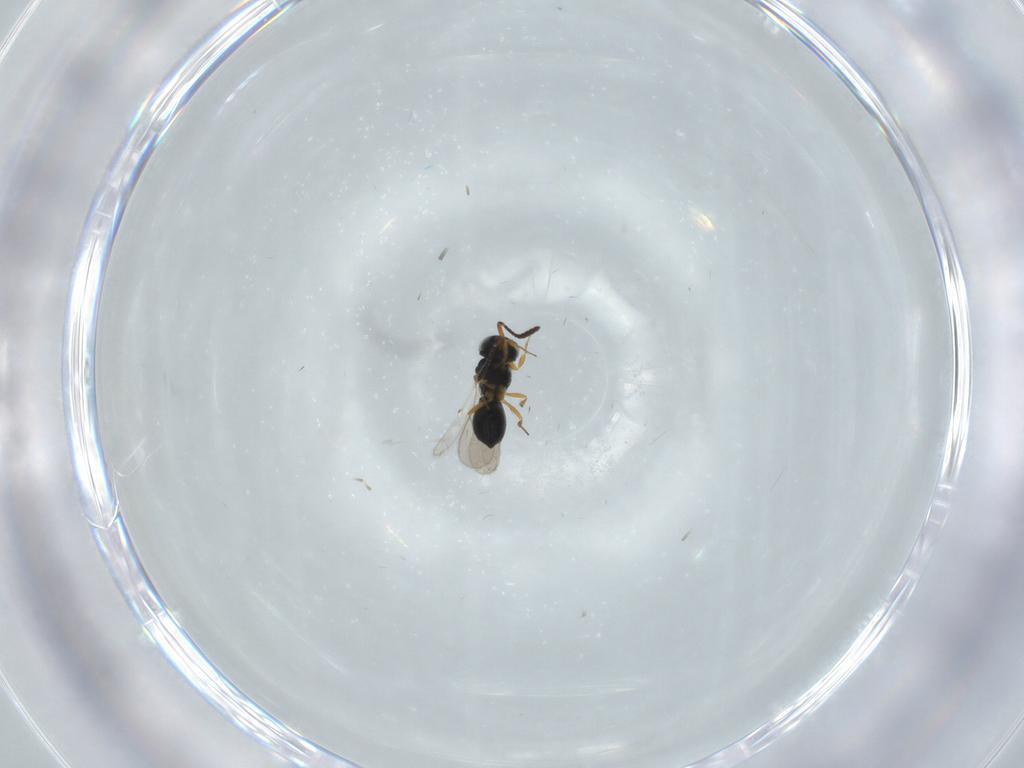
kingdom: Animalia
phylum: Arthropoda
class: Insecta
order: Hymenoptera
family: Scelionidae
